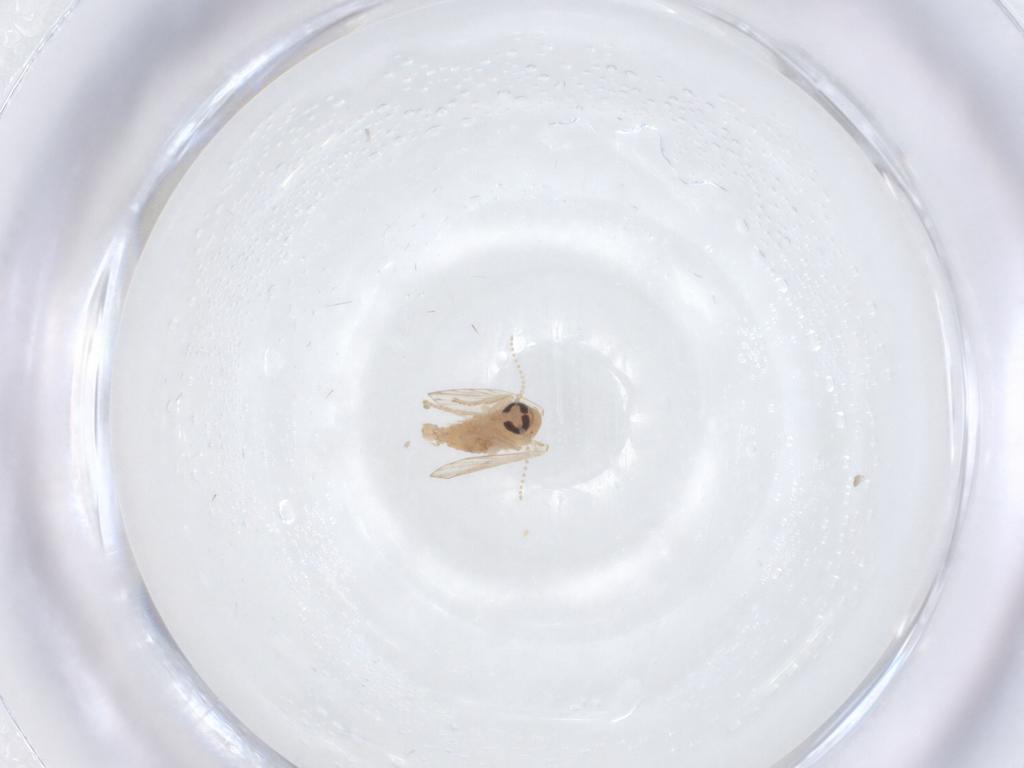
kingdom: Animalia
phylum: Arthropoda
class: Insecta
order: Diptera
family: Psychodidae
